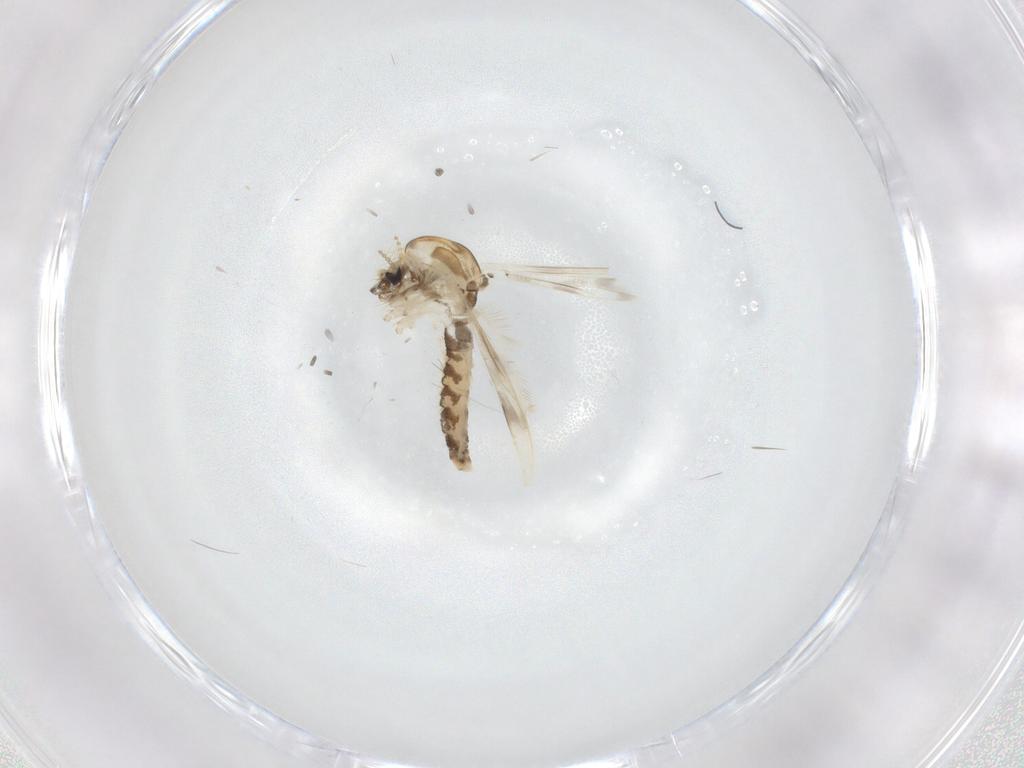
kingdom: Animalia
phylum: Arthropoda
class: Insecta
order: Diptera
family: Corethrellidae
